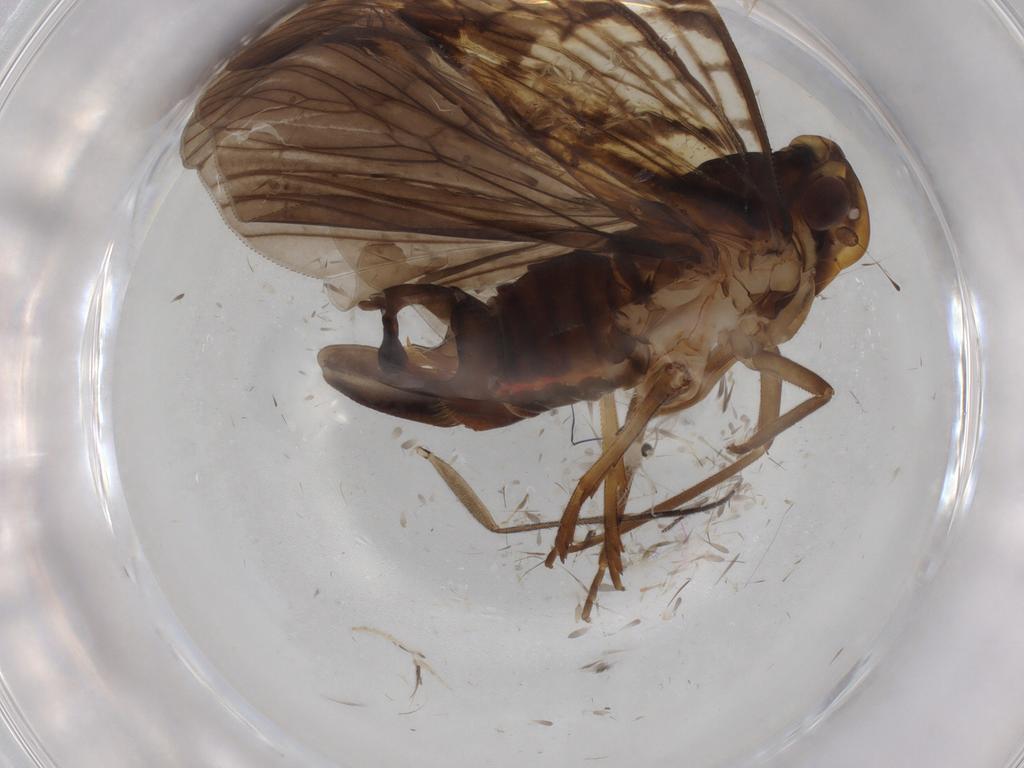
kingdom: Animalia
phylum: Arthropoda
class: Insecta
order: Hemiptera
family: Cixiidae
